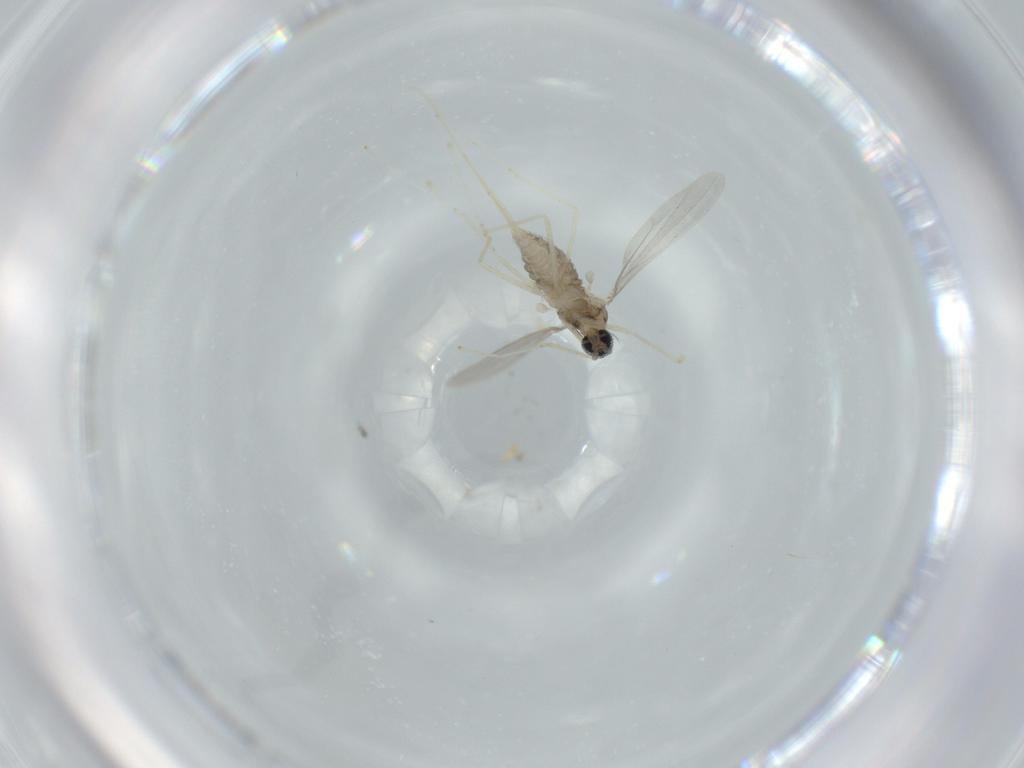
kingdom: Animalia
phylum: Arthropoda
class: Insecta
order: Diptera
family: Cecidomyiidae
